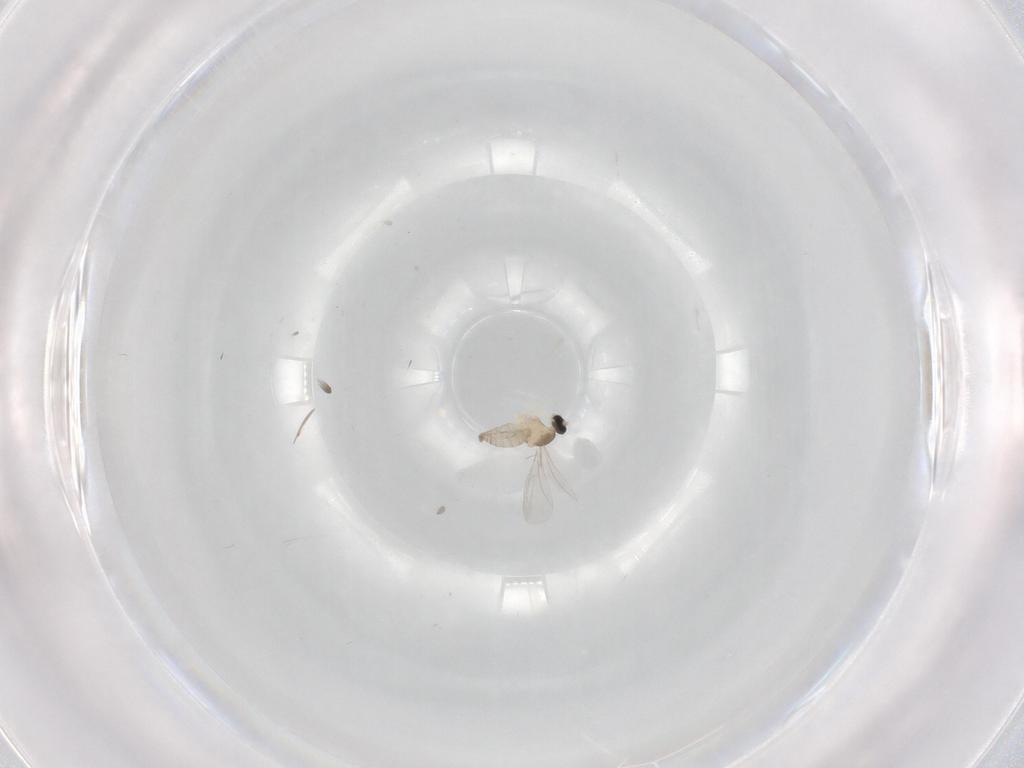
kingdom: Animalia
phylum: Arthropoda
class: Insecta
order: Diptera
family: Cecidomyiidae
